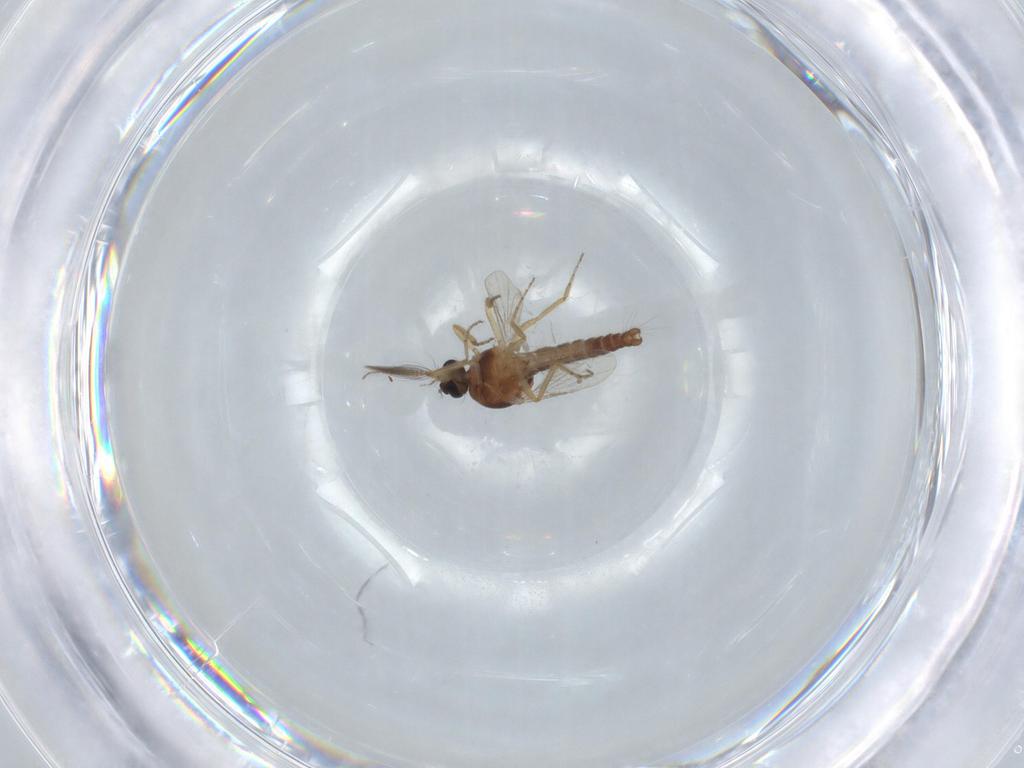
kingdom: Animalia
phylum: Arthropoda
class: Insecta
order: Diptera
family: Ceratopogonidae
